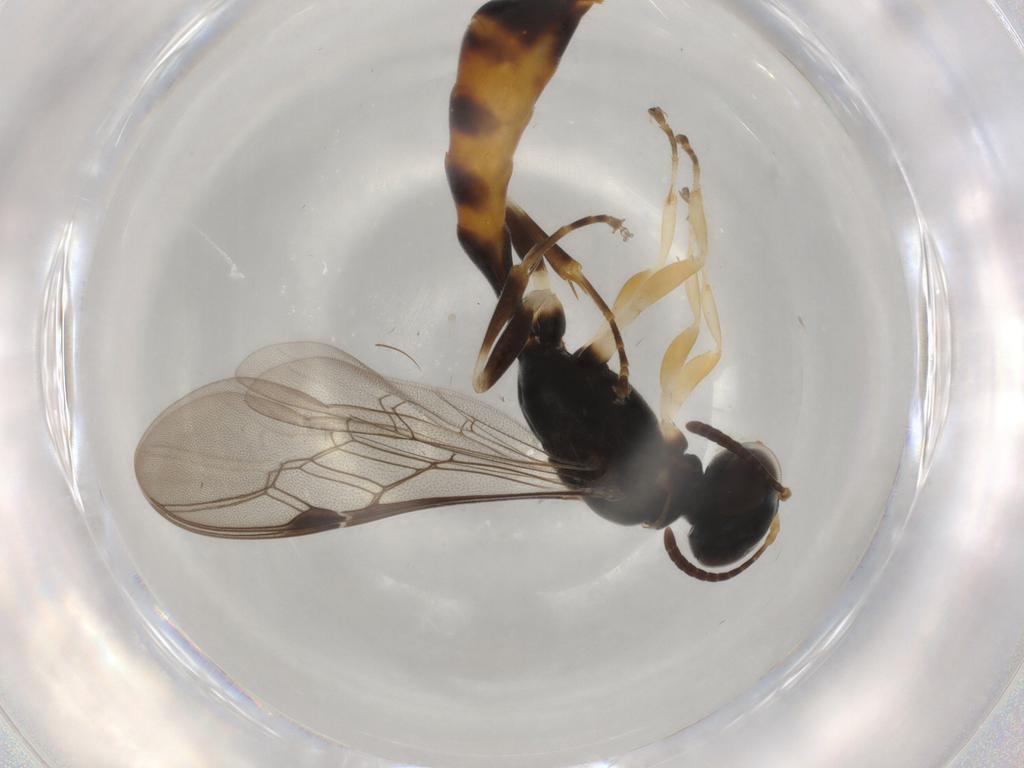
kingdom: Animalia
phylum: Arthropoda
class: Insecta
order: Hymenoptera
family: Crabronidae
